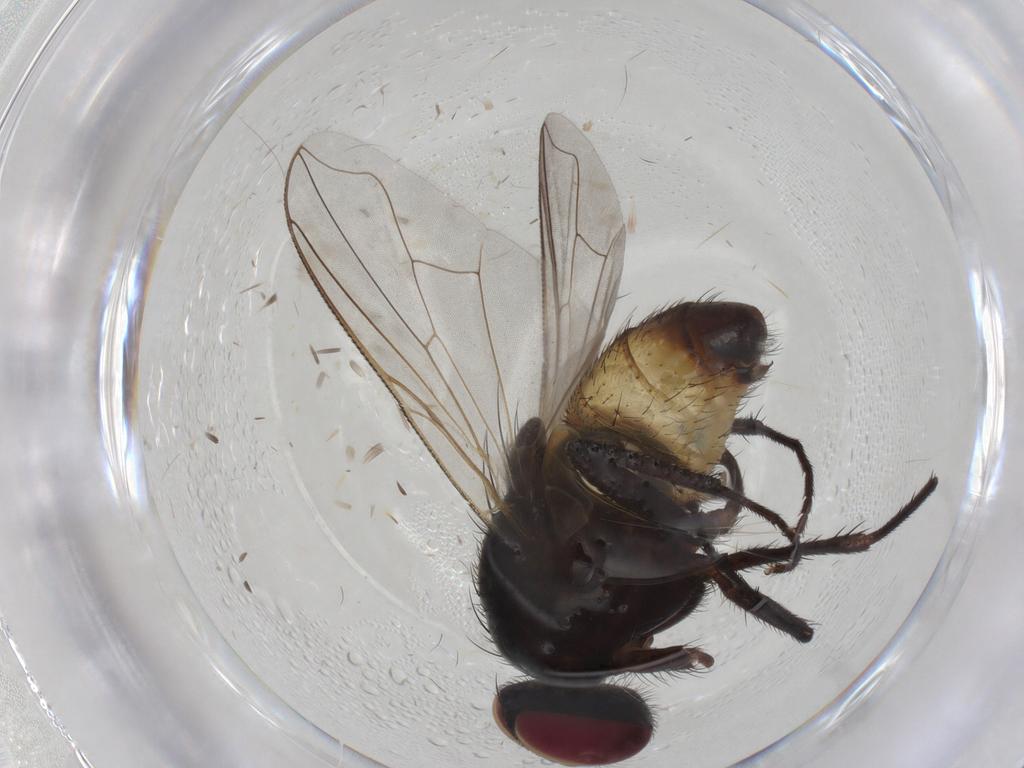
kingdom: Animalia
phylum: Arthropoda
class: Insecta
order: Diptera
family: Muscidae
